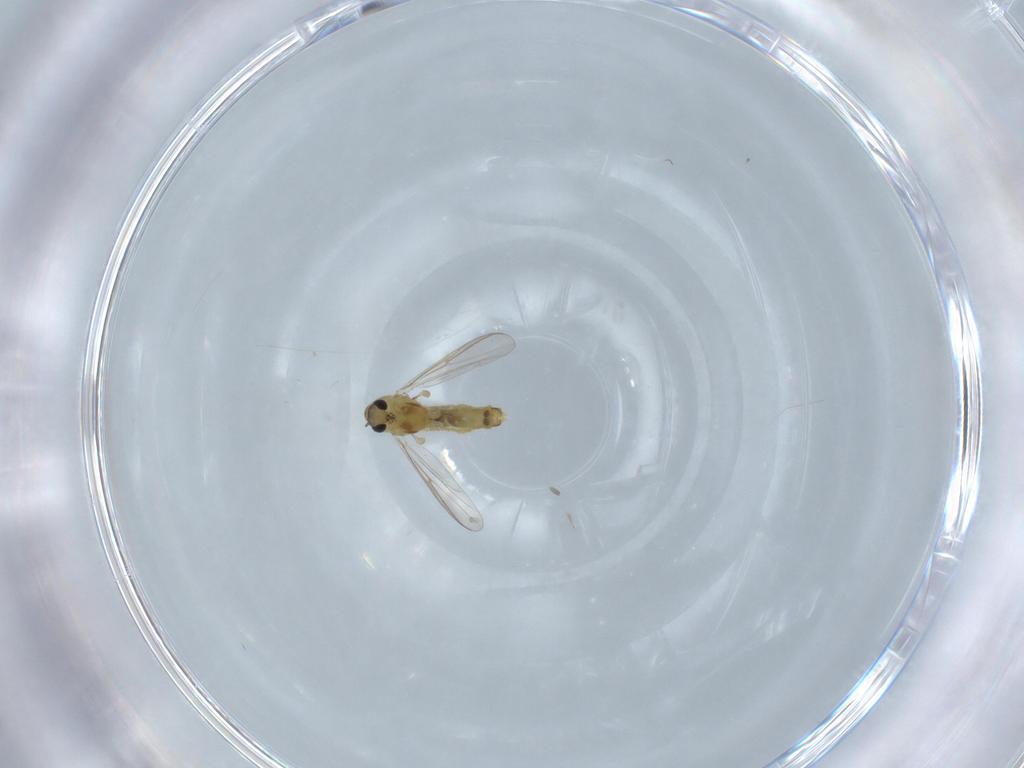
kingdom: Animalia
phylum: Arthropoda
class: Insecta
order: Diptera
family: Chironomidae
